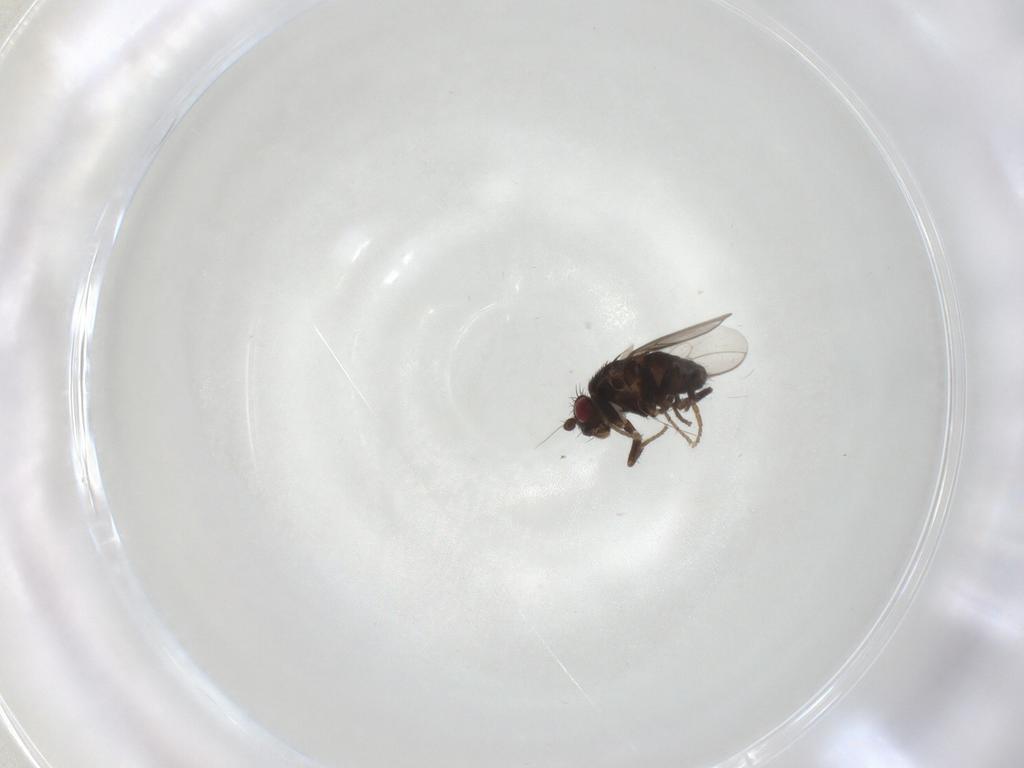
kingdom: Animalia
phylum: Arthropoda
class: Insecta
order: Diptera
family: Sphaeroceridae
